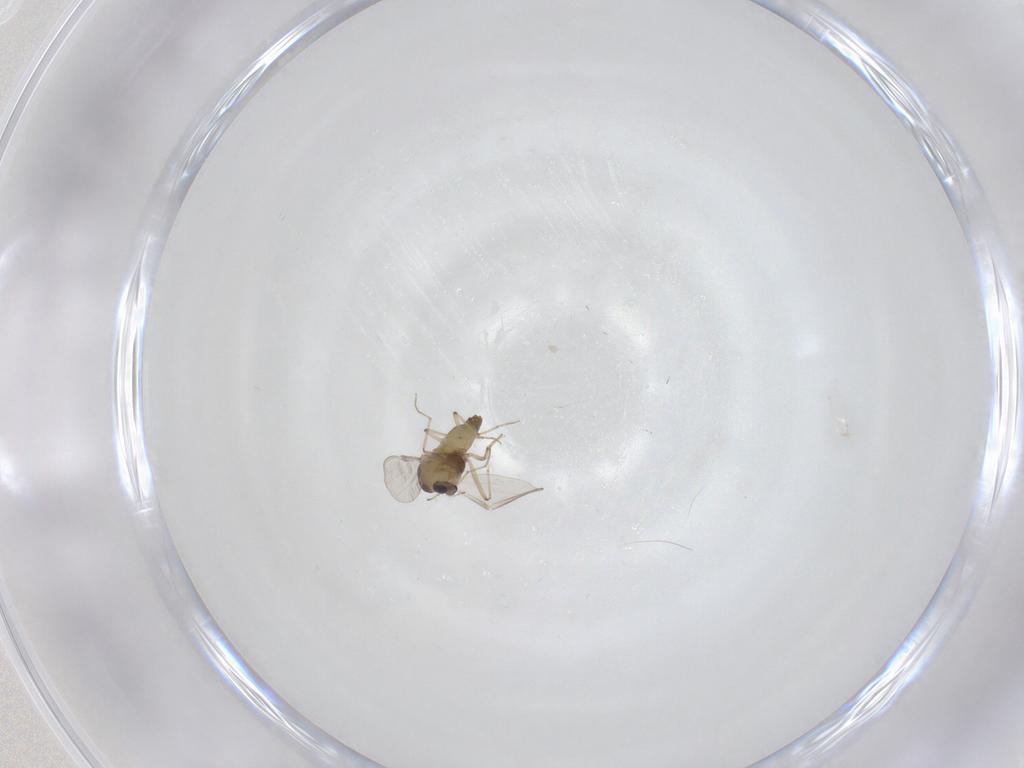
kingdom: Animalia
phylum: Arthropoda
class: Insecta
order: Diptera
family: Chironomidae
